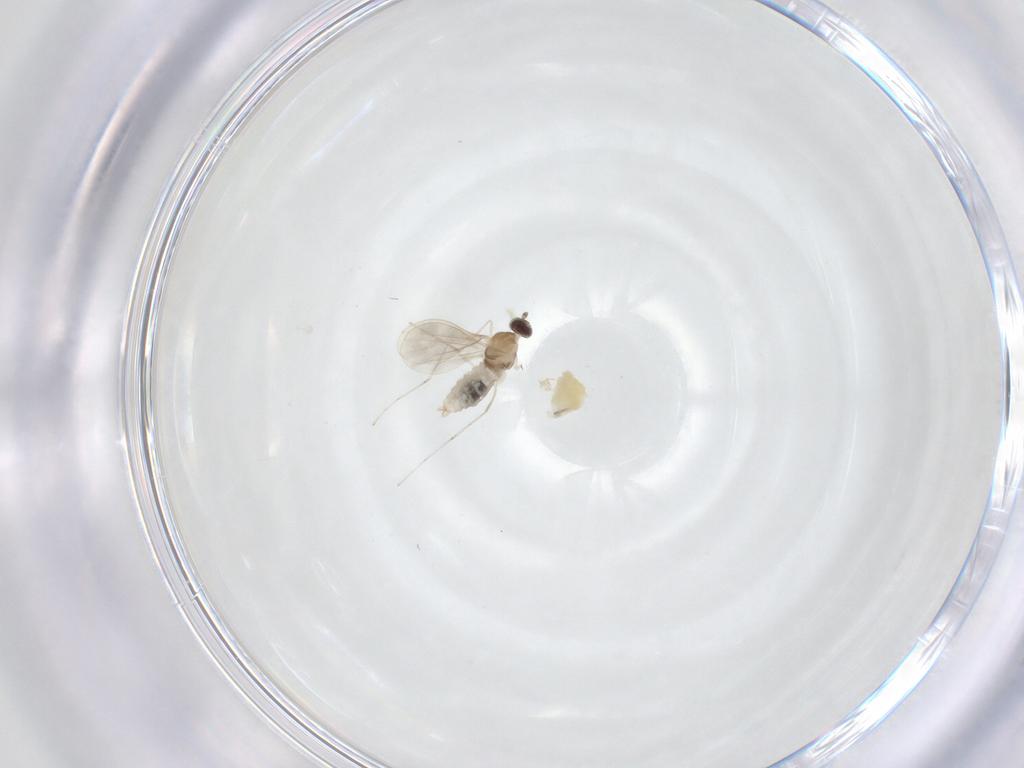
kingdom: Animalia
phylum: Arthropoda
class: Insecta
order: Diptera
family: Cecidomyiidae
